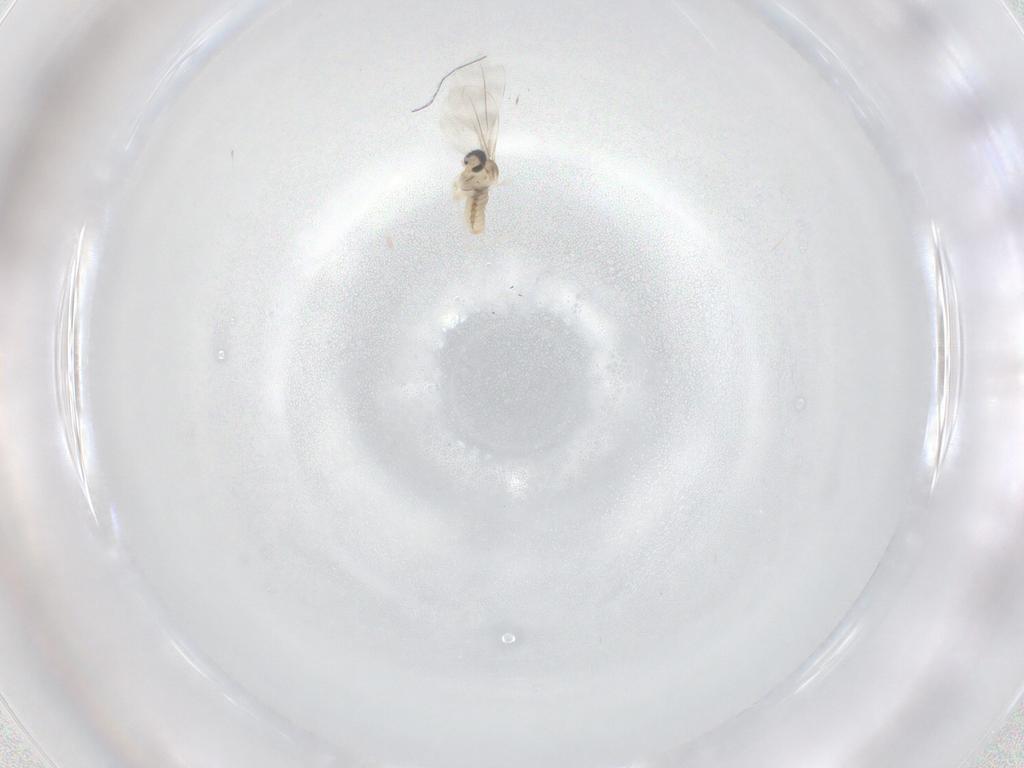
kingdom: Animalia
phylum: Arthropoda
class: Insecta
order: Diptera
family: Cecidomyiidae
